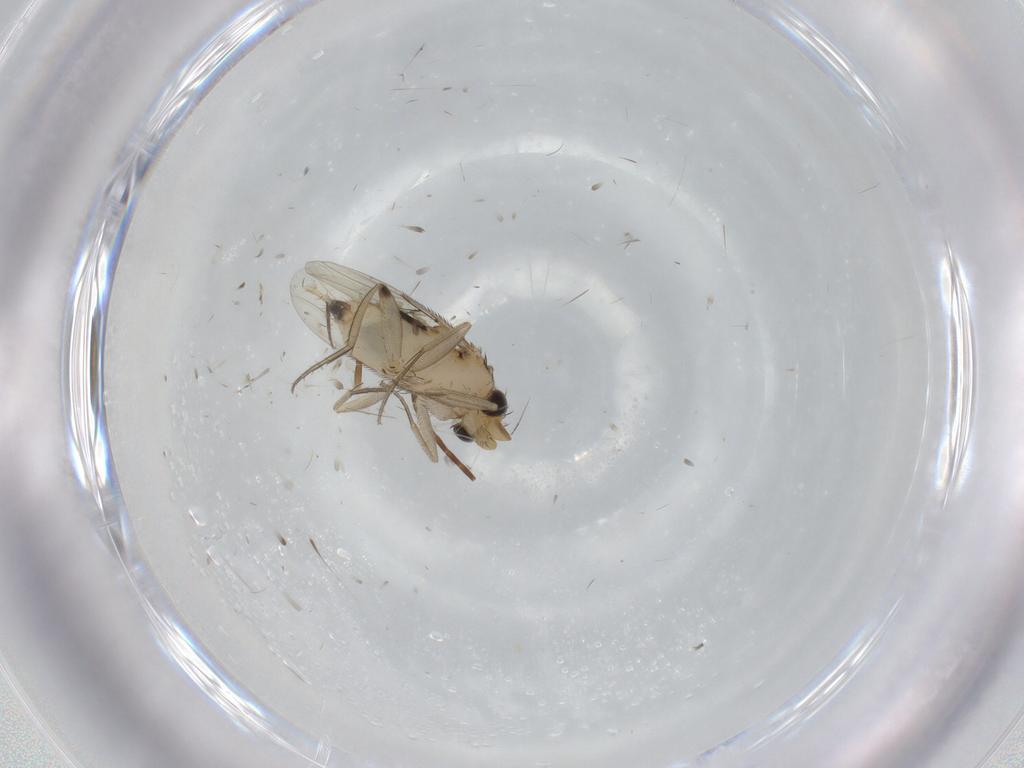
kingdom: Animalia
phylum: Arthropoda
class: Insecta
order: Diptera
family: Phoridae
